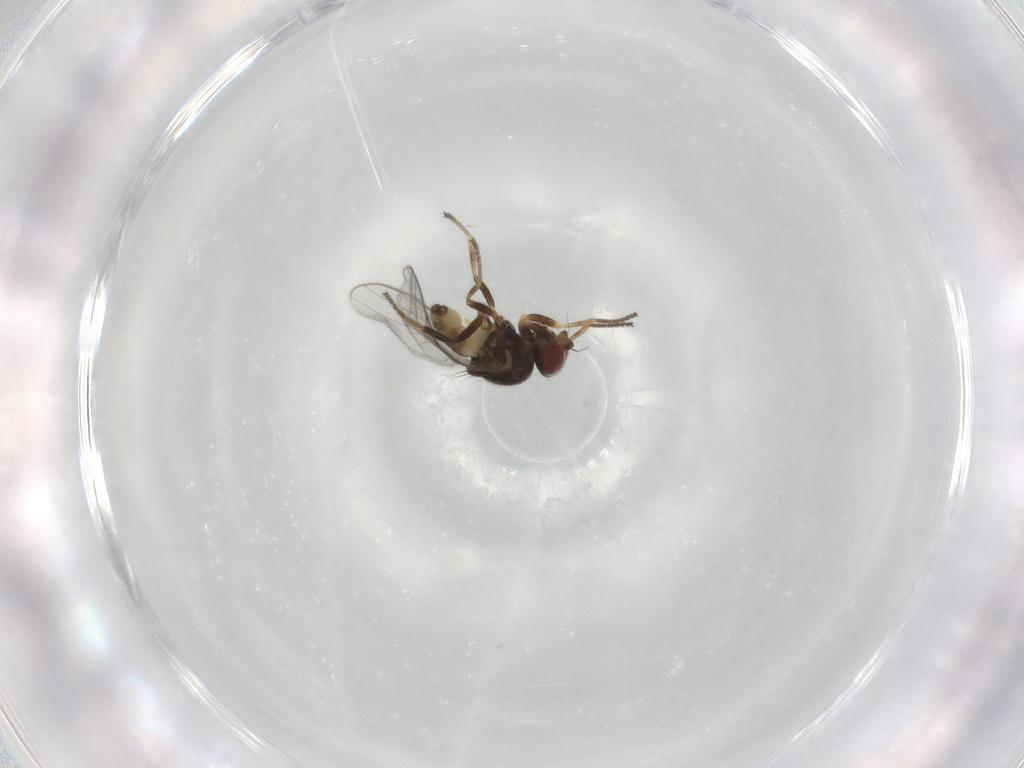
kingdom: Animalia
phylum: Arthropoda
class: Insecta
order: Diptera
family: Chloropidae
